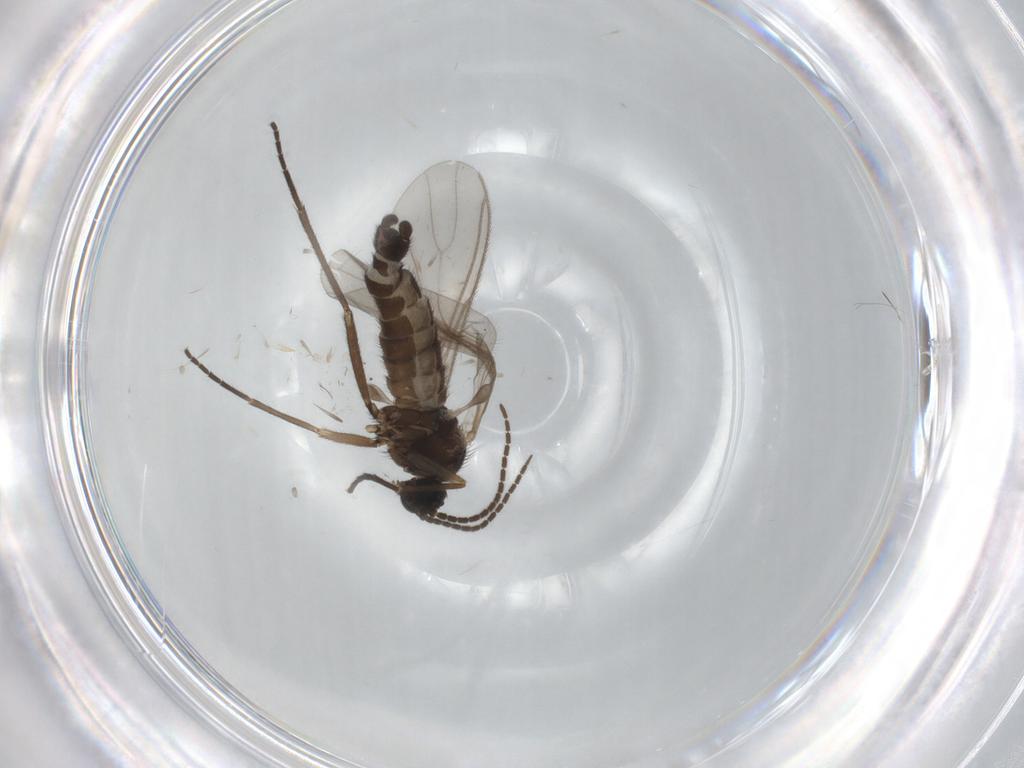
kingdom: Animalia
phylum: Arthropoda
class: Insecta
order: Diptera
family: Sciaridae
